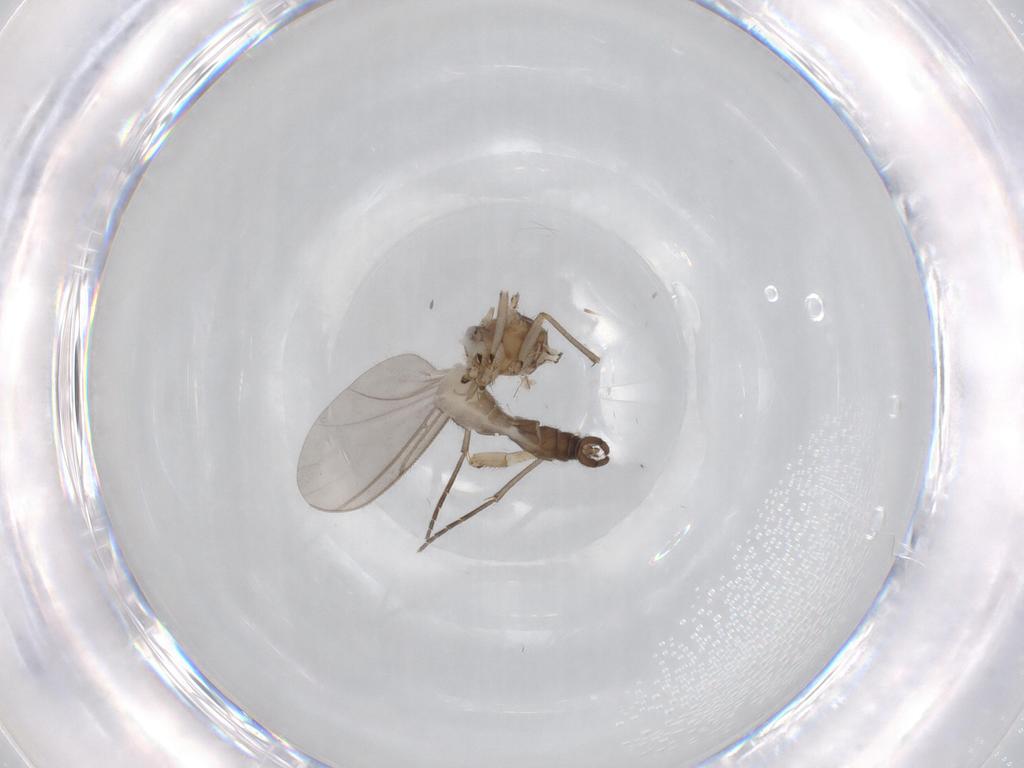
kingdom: Animalia
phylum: Arthropoda
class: Insecta
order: Diptera
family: Sciaridae
